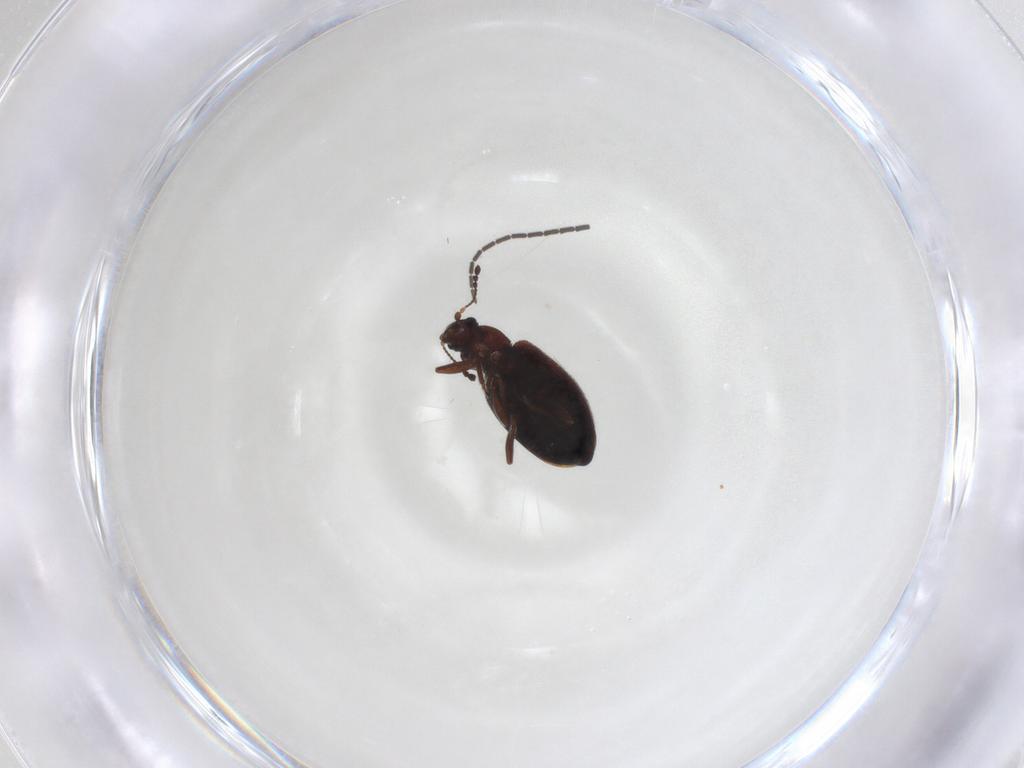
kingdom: Animalia
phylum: Arthropoda
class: Insecta
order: Coleoptera
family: Latridiidae
